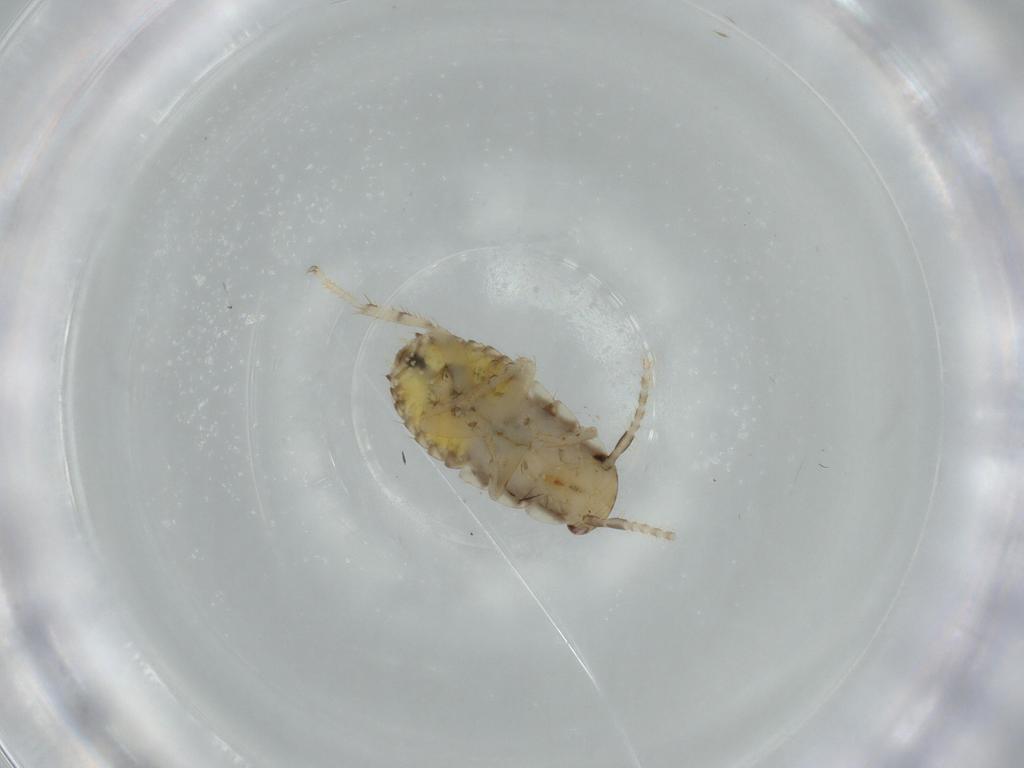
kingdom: Animalia
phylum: Arthropoda
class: Insecta
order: Blattodea
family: Ectobiidae
